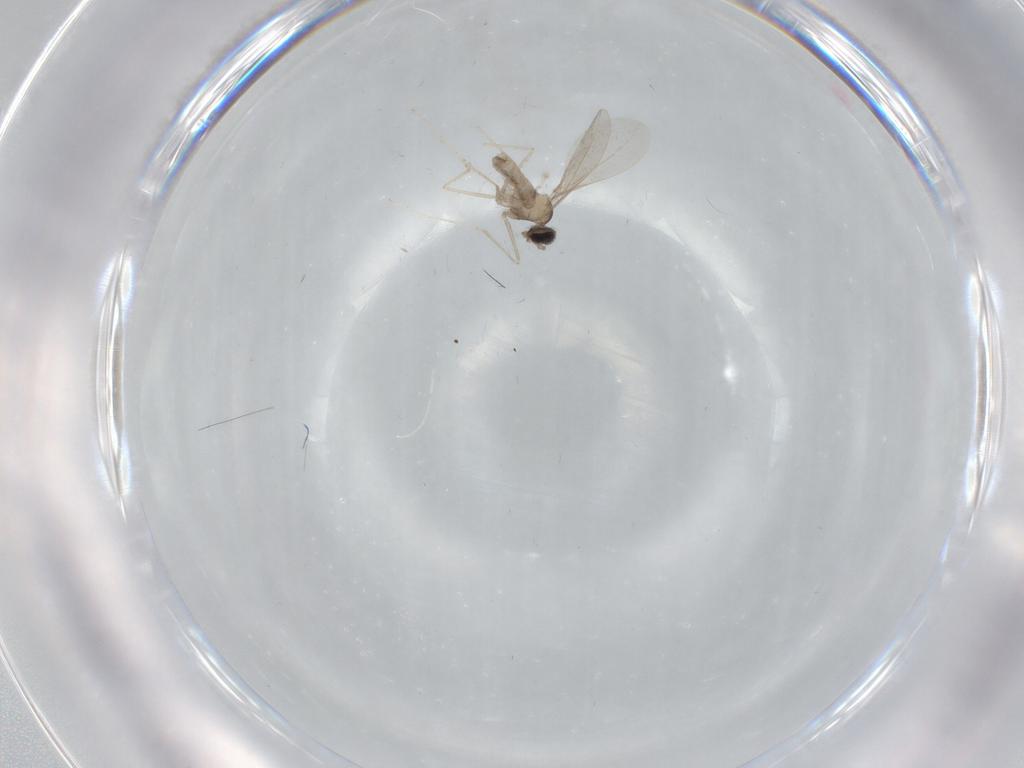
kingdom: Animalia
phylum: Arthropoda
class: Insecta
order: Diptera
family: Cecidomyiidae
